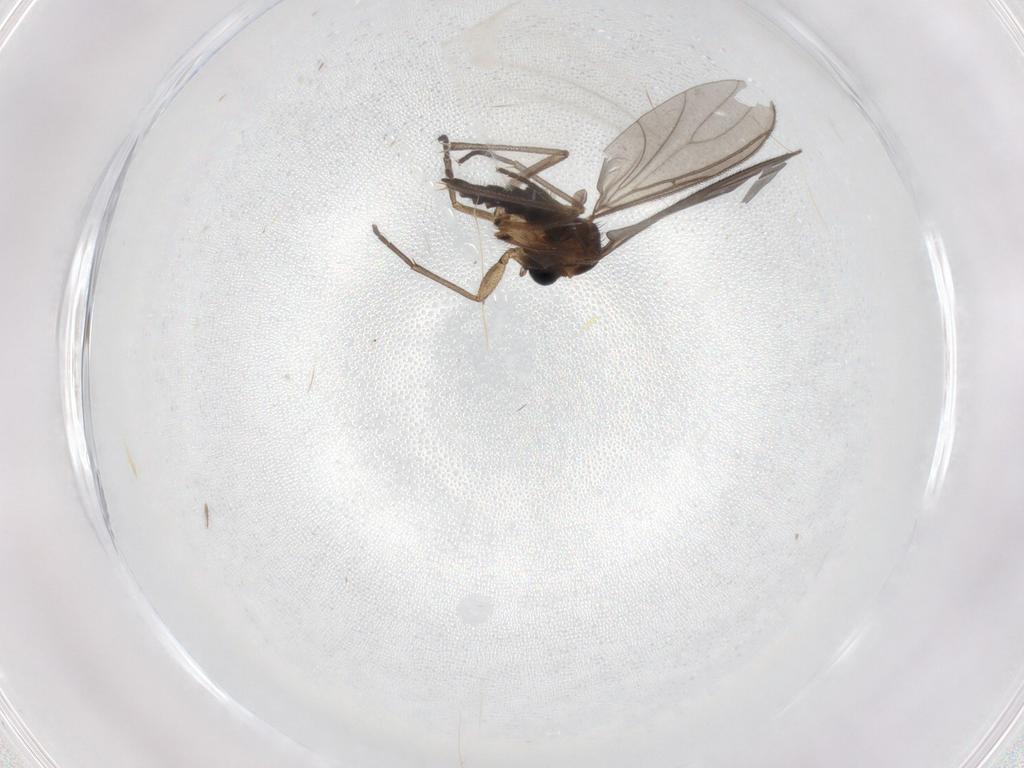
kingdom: Animalia
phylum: Arthropoda
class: Insecta
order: Diptera
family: Sciaridae
